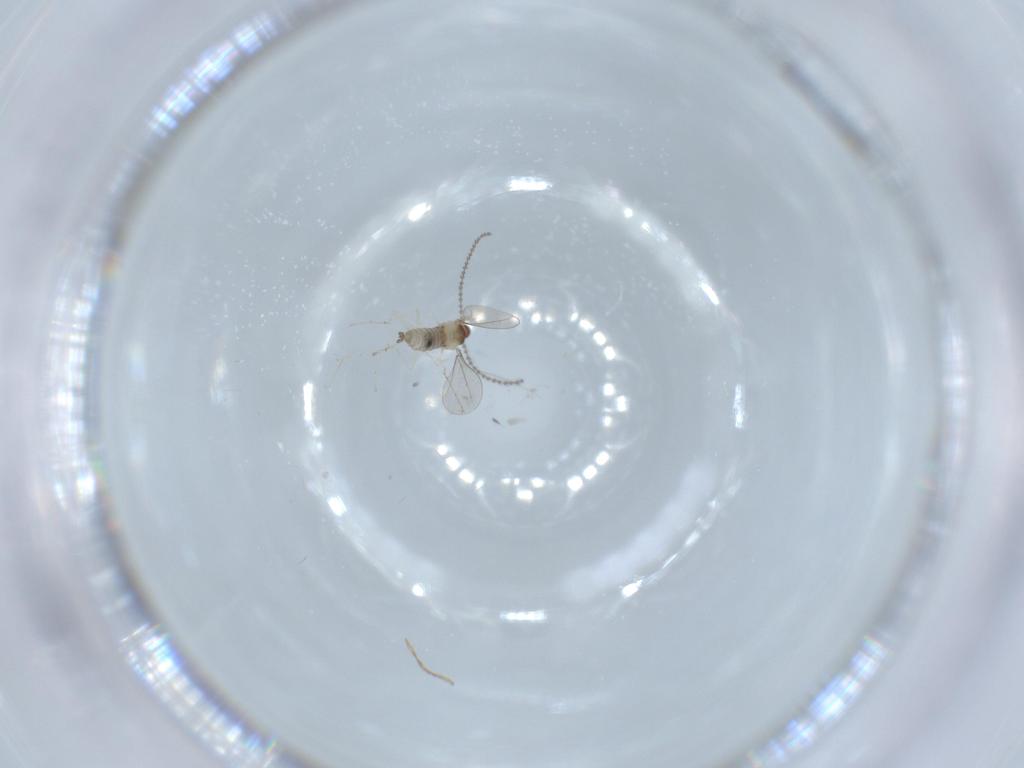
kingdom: Animalia
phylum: Arthropoda
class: Insecta
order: Diptera
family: Cecidomyiidae
